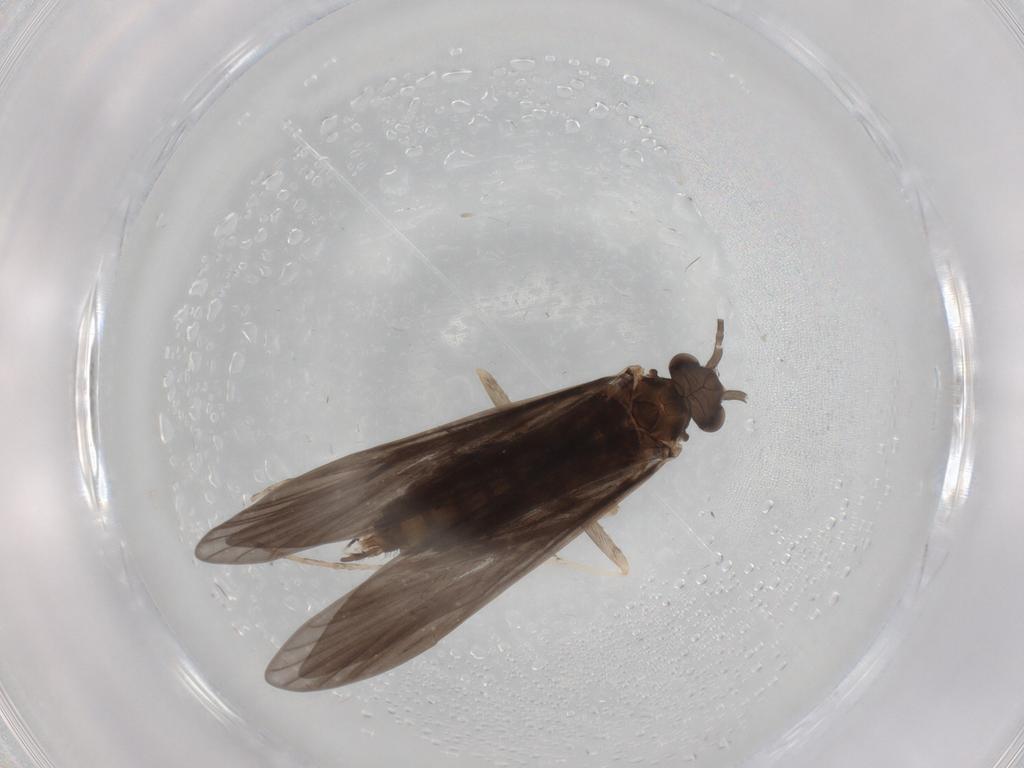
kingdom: Animalia
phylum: Arthropoda
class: Insecta
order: Trichoptera
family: Xiphocentronidae
